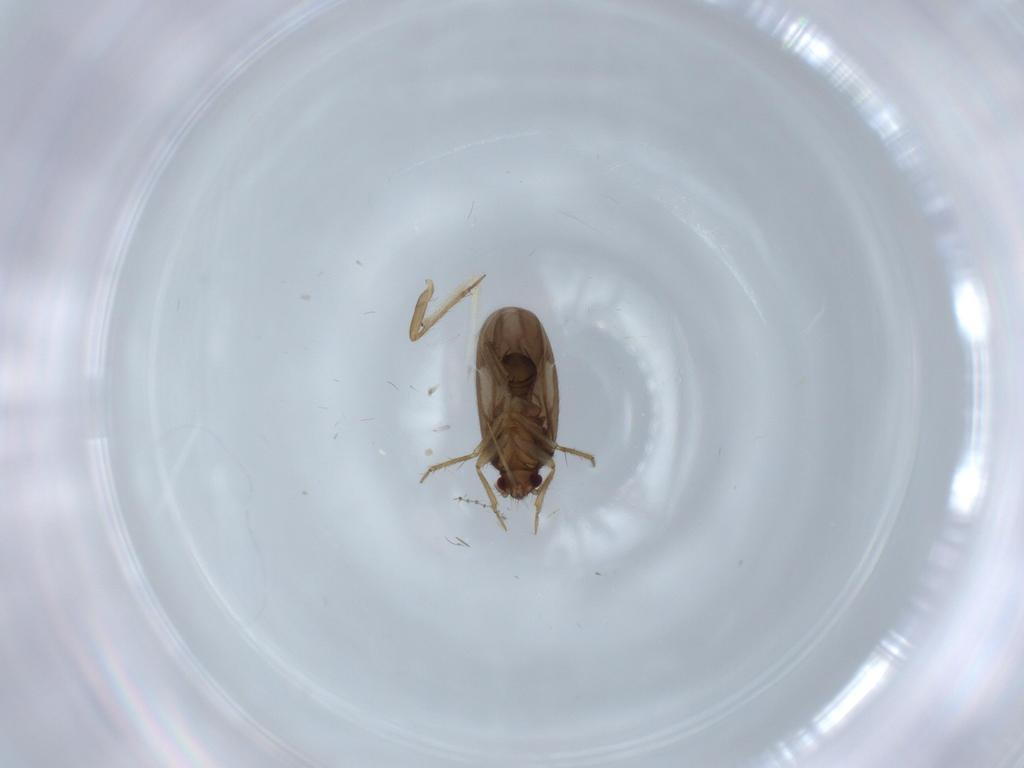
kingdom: Animalia
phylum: Arthropoda
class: Insecta
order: Hemiptera
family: Ceratocombidae
